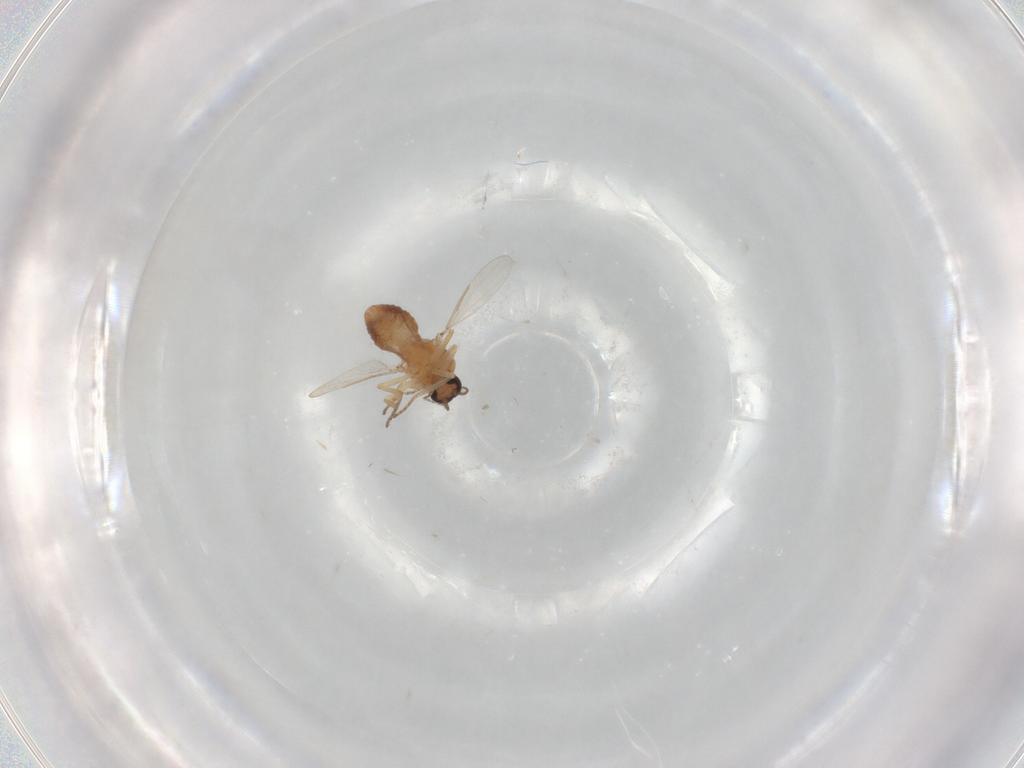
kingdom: Animalia
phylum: Arthropoda
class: Insecta
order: Diptera
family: Ceratopogonidae
